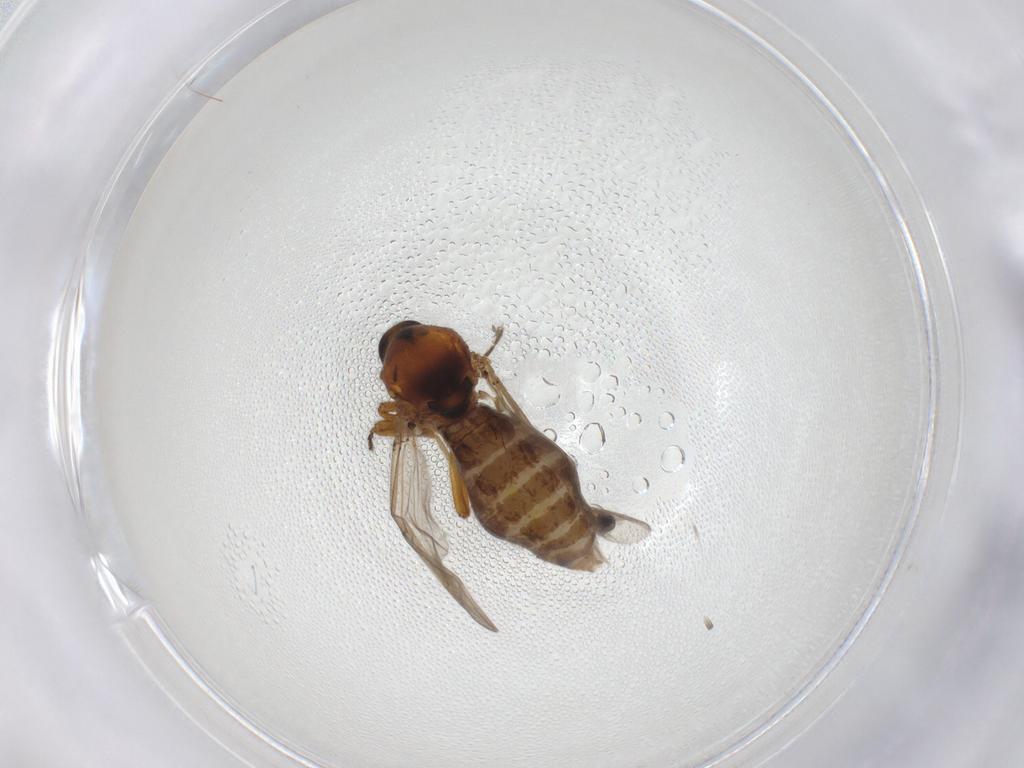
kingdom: Animalia
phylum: Arthropoda
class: Insecta
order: Diptera
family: Ceratopogonidae
